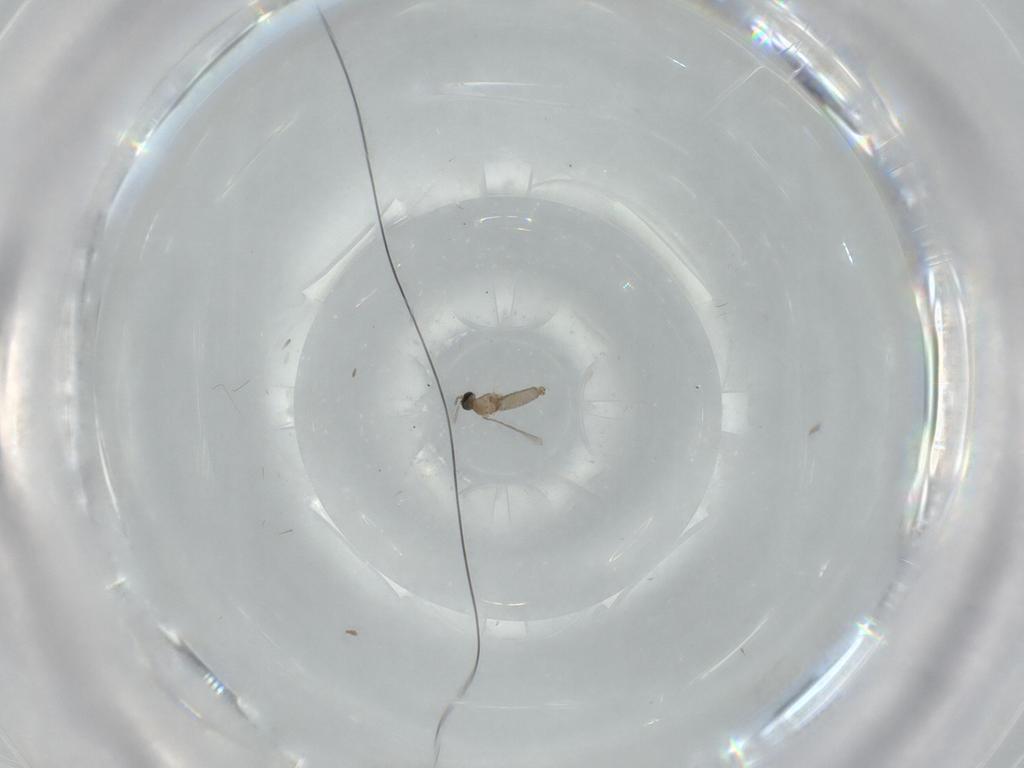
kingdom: Animalia
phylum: Arthropoda
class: Insecta
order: Diptera
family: Cecidomyiidae
